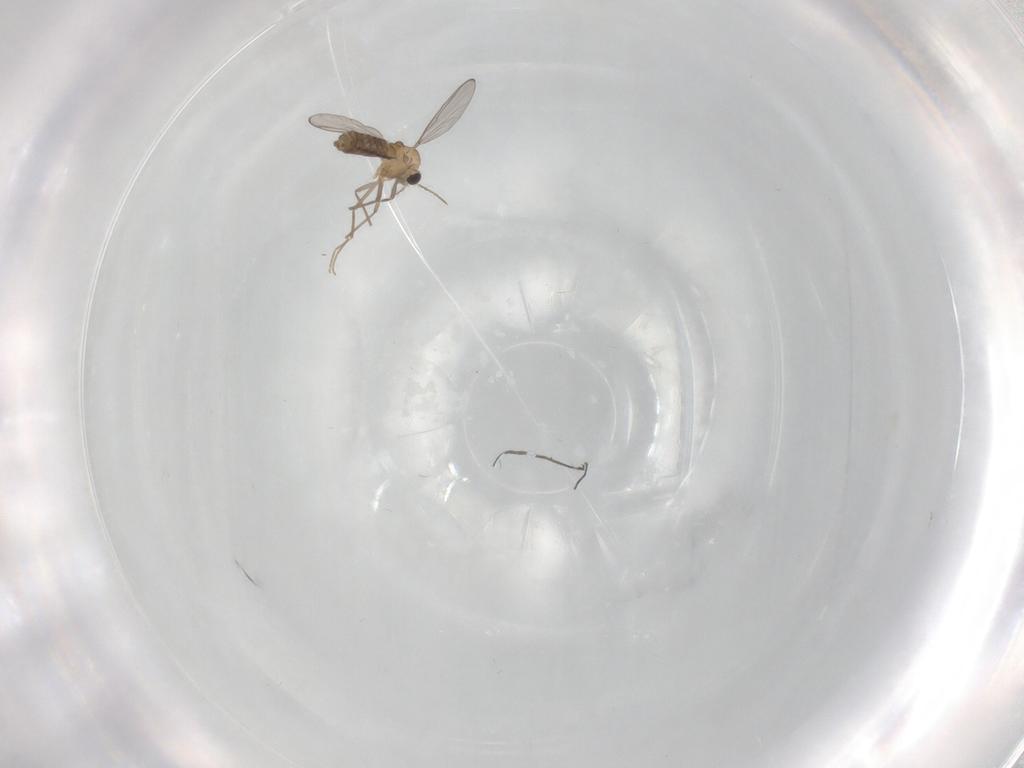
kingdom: Animalia
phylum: Arthropoda
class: Insecta
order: Diptera
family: Chironomidae
